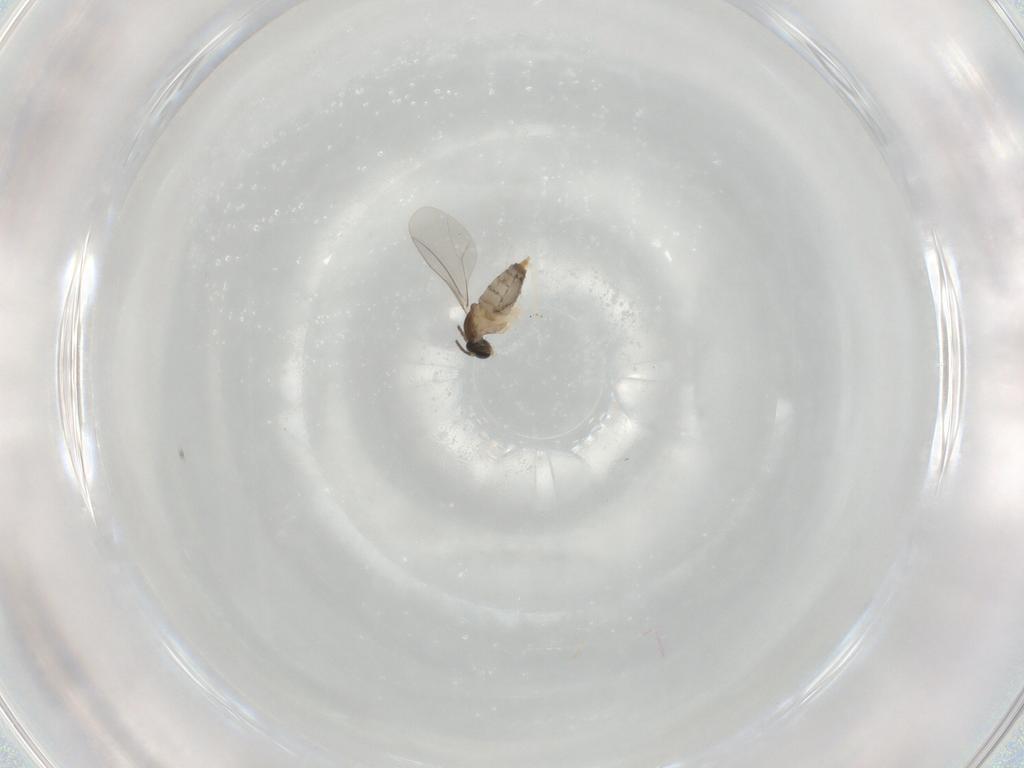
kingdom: Animalia
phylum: Arthropoda
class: Insecta
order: Diptera
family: Cecidomyiidae
